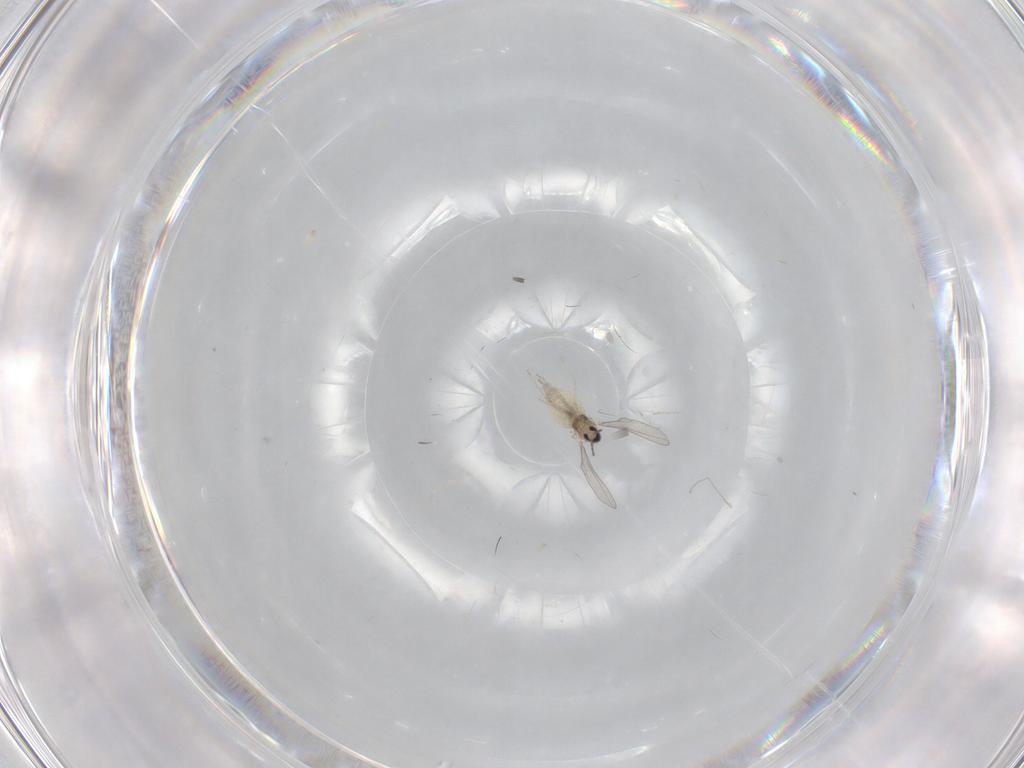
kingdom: Animalia
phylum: Arthropoda
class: Insecta
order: Diptera
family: Cecidomyiidae
